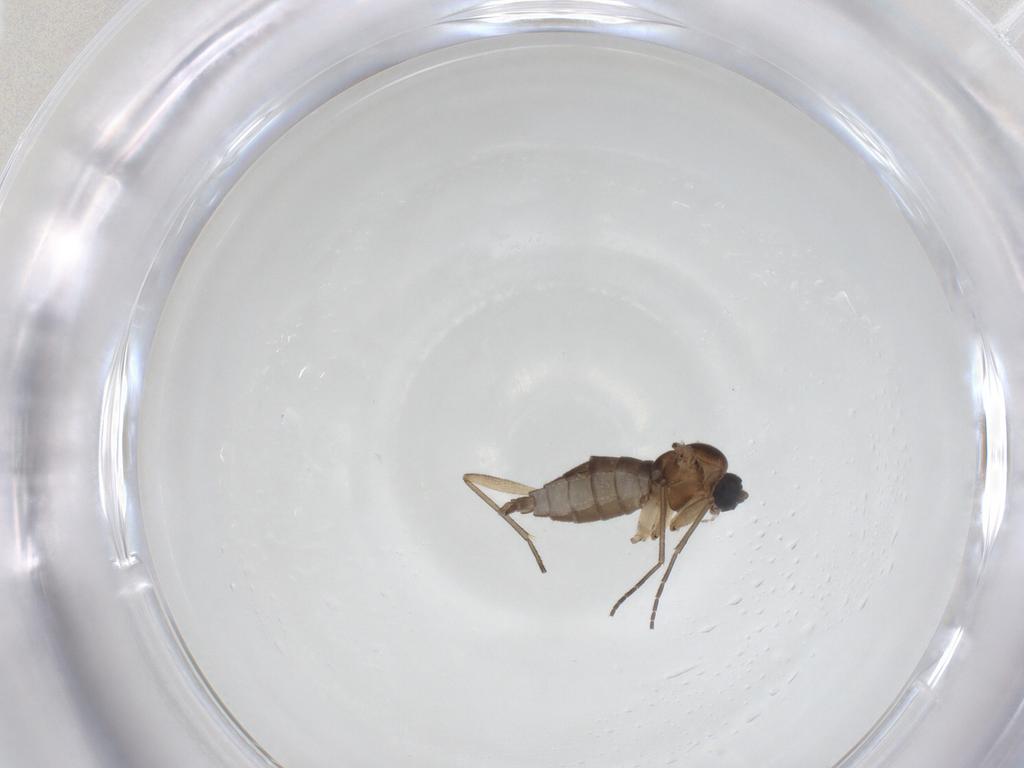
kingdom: Animalia
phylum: Arthropoda
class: Insecta
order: Diptera
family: Sciaridae
